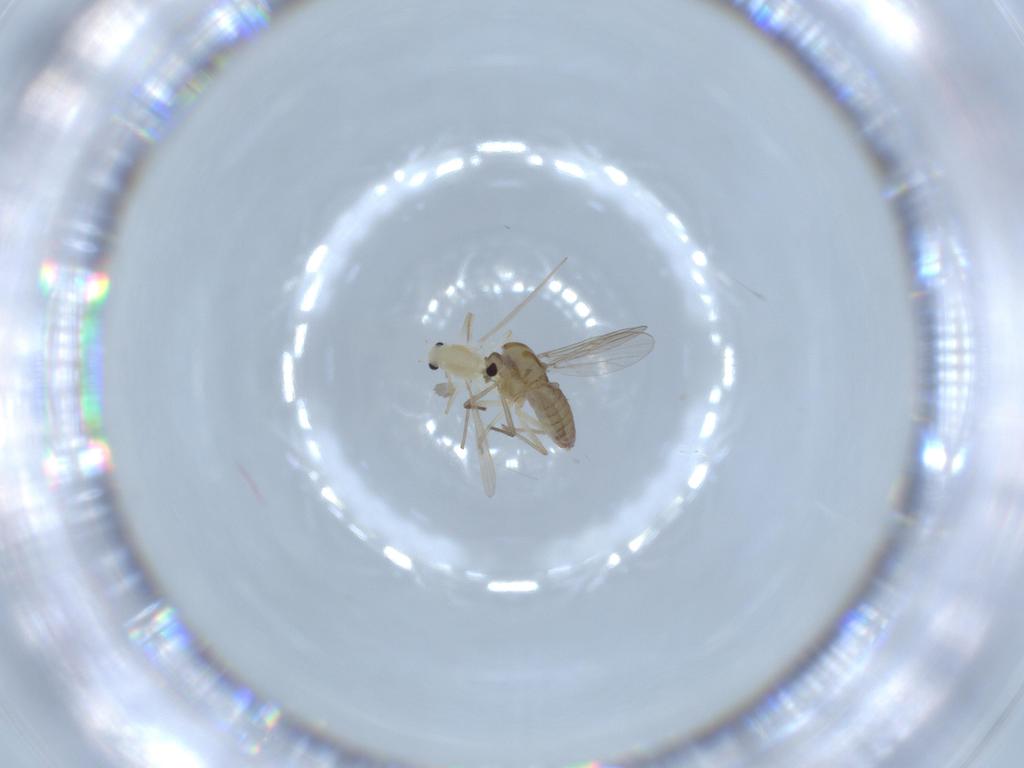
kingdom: Animalia
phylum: Arthropoda
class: Insecta
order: Diptera
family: Chironomidae
